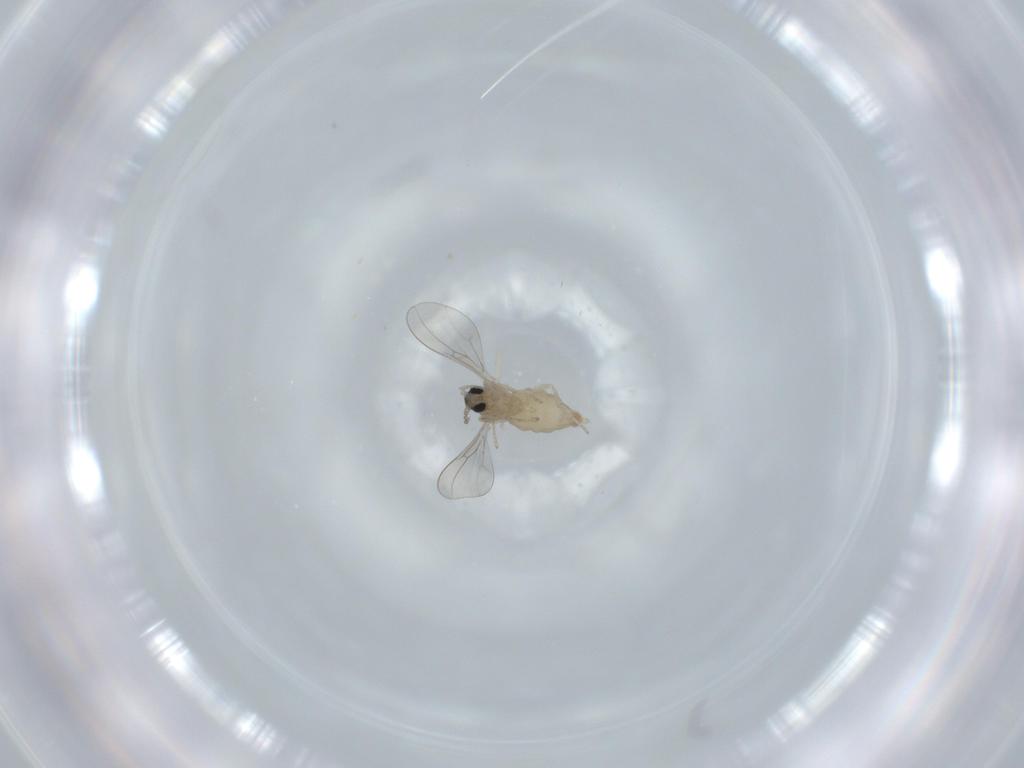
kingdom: Animalia
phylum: Arthropoda
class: Insecta
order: Diptera
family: Cecidomyiidae
